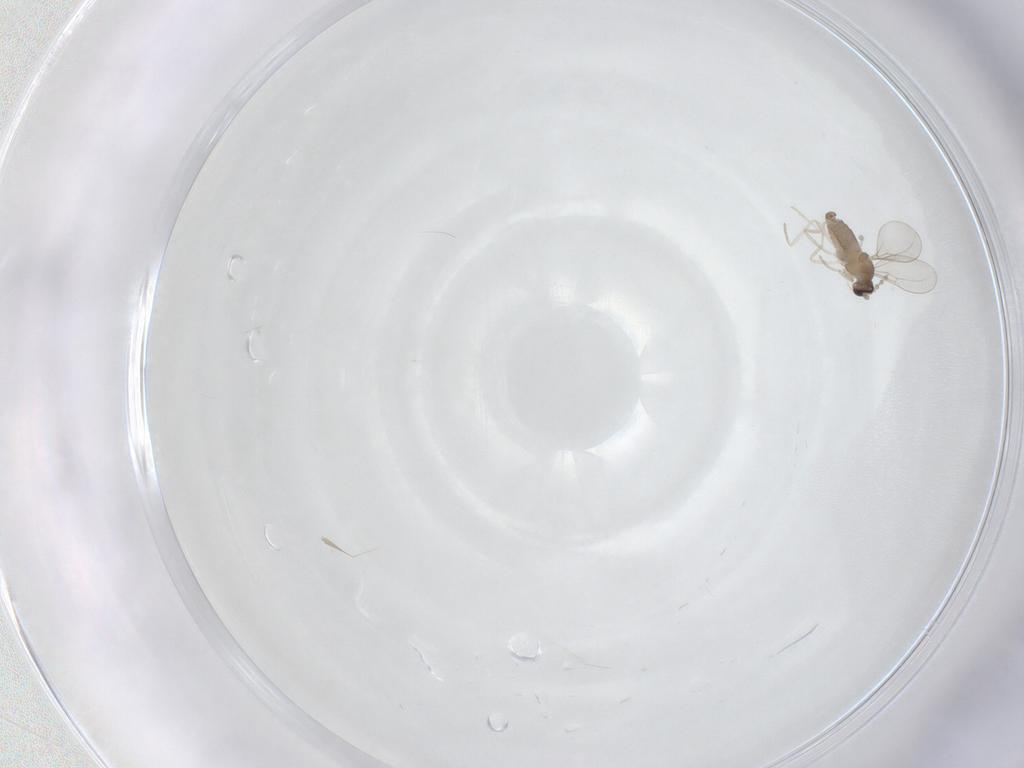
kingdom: Animalia
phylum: Arthropoda
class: Insecta
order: Diptera
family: Cecidomyiidae
